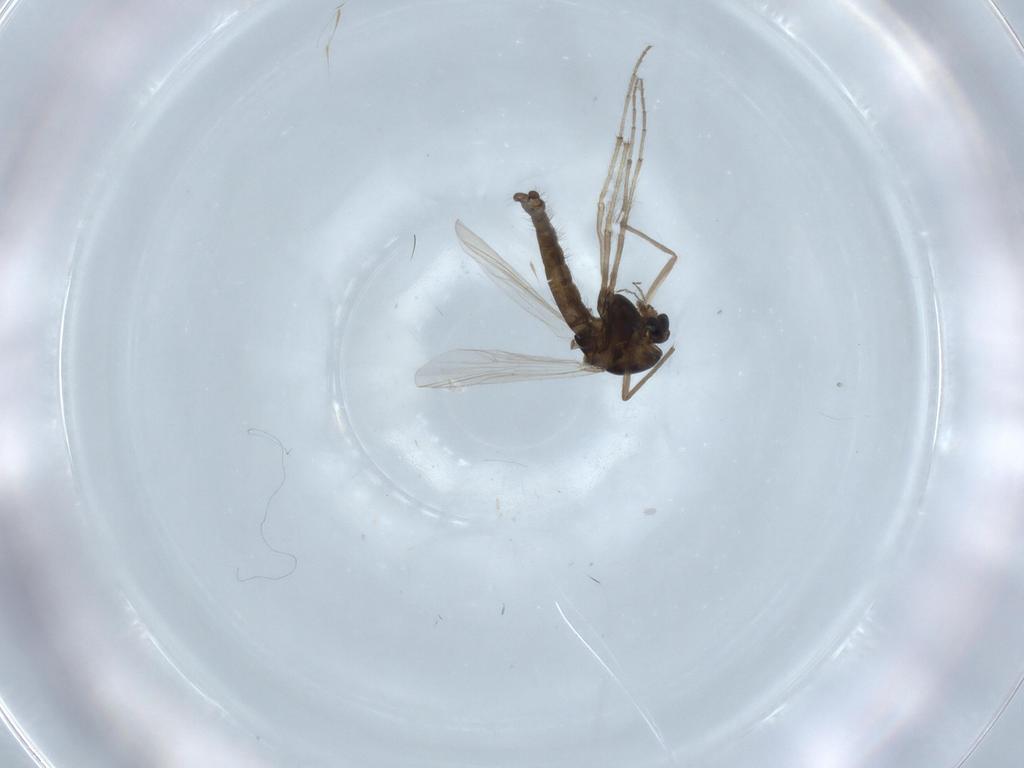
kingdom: Animalia
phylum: Arthropoda
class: Insecta
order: Diptera
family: Chironomidae
